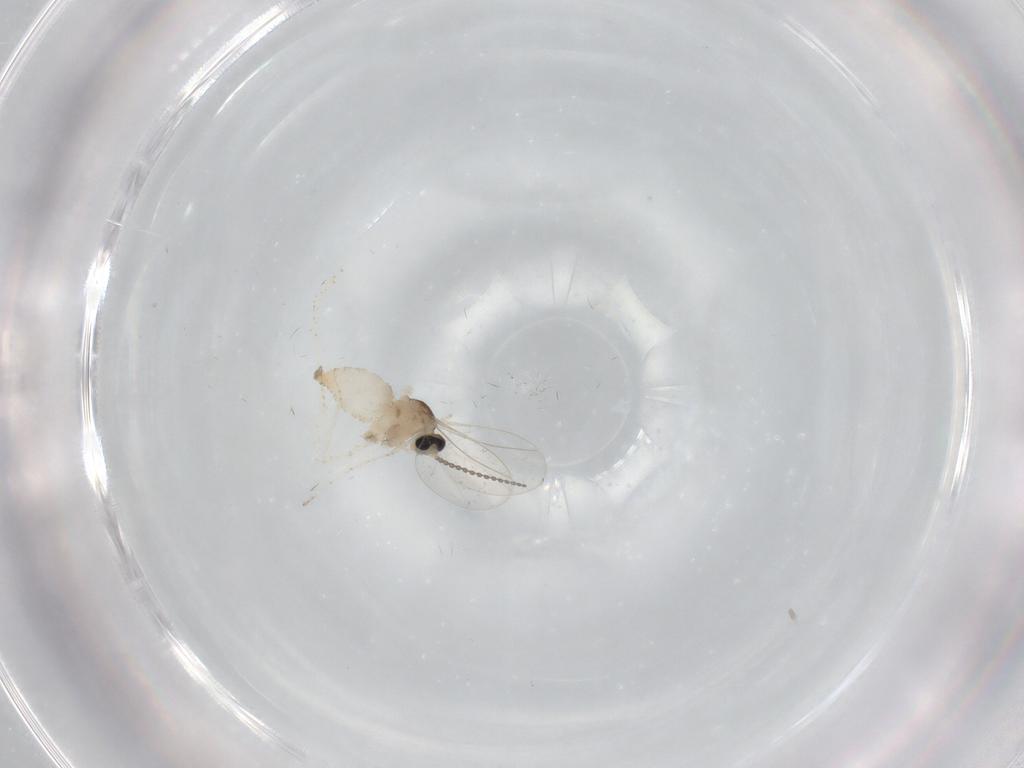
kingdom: Animalia
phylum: Arthropoda
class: Insecta
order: Diptera
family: Cecidomyiidae
